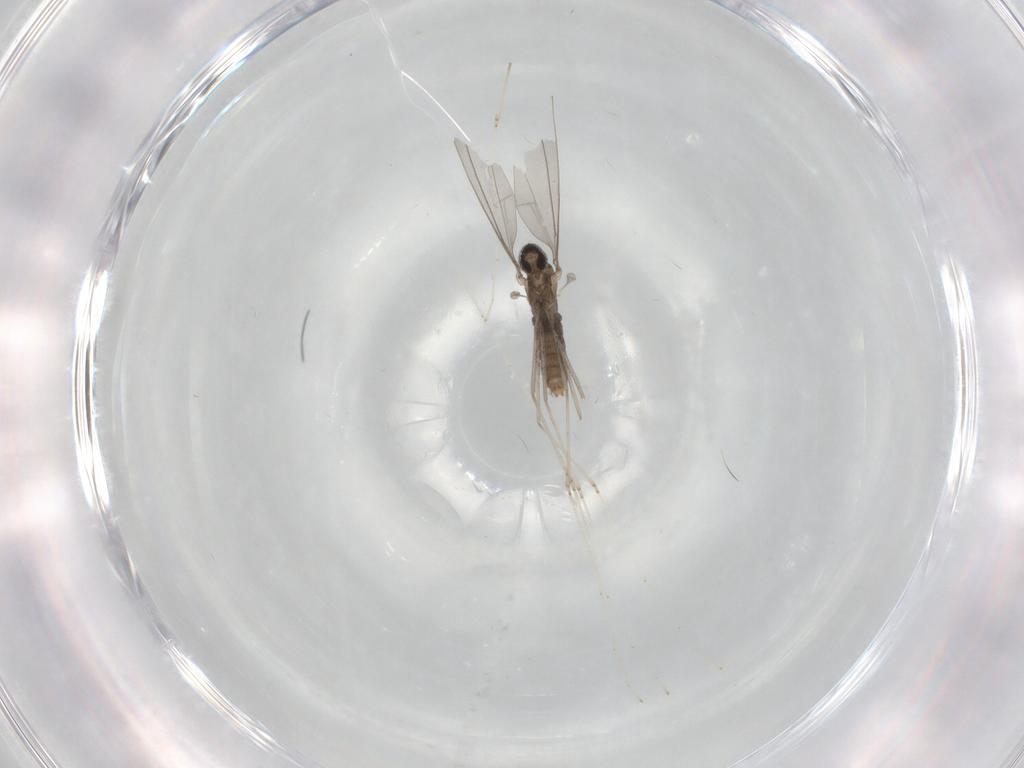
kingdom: Animalia
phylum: Arthropoda
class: Insecta
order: Diptera
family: Cecidomyiidae
